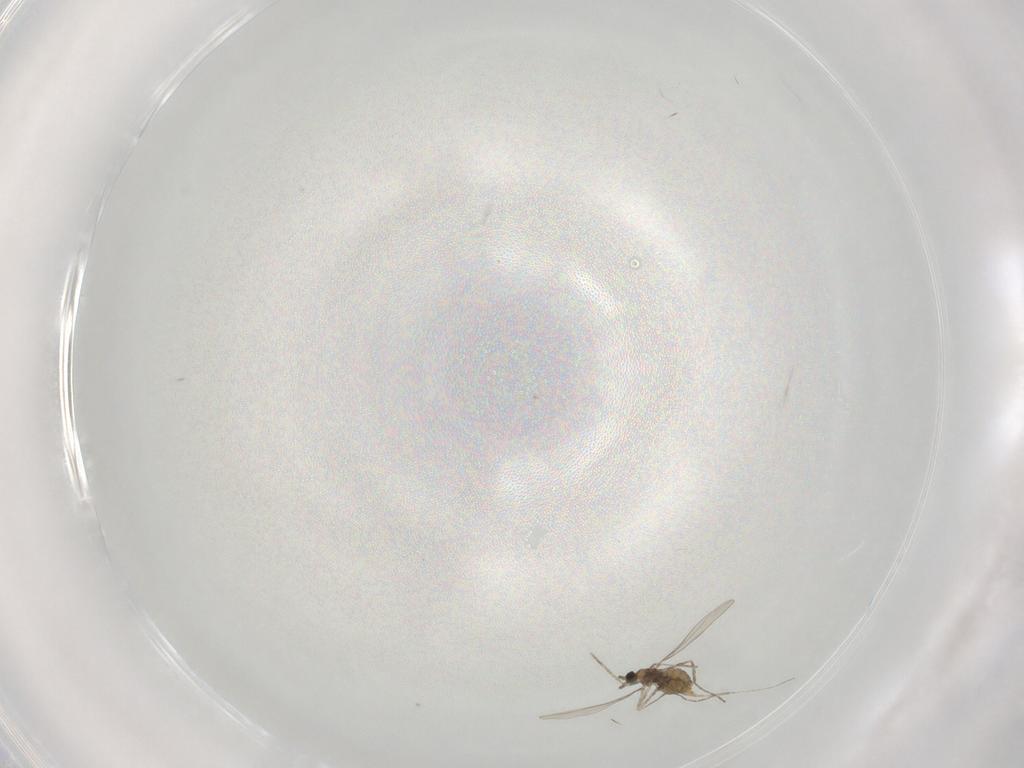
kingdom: Animalia
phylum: Arthropoda
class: Insecta
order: Diptera
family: Cecidomyiidae
